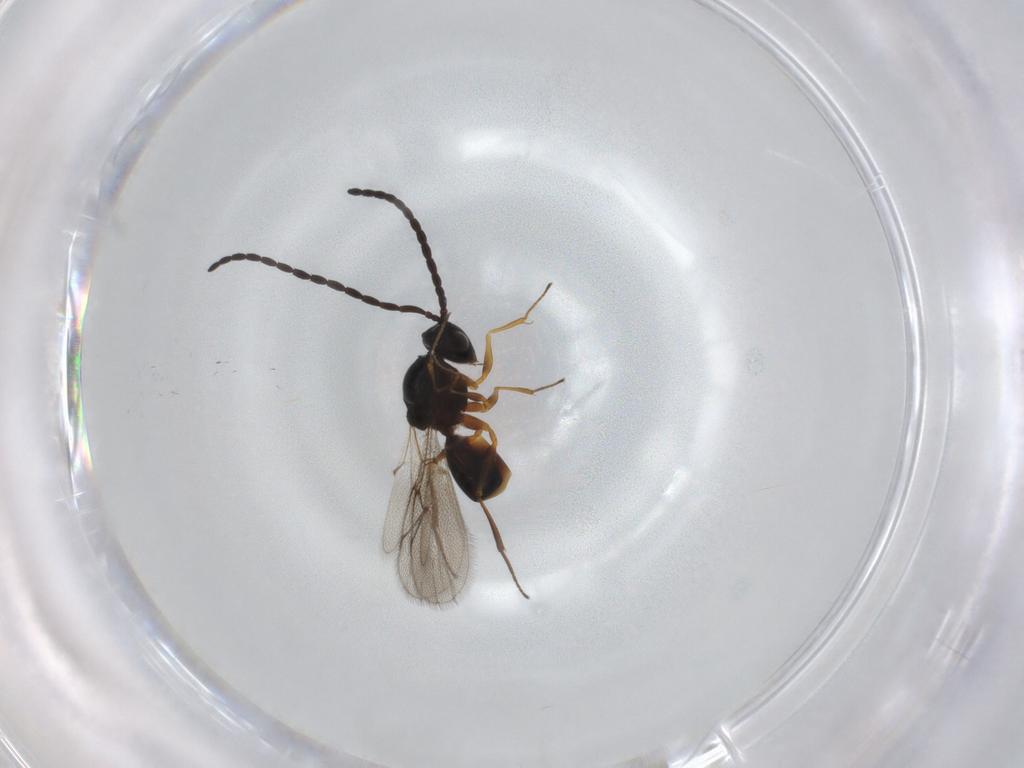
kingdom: Animalia
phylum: Arthropoda
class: Insecta
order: Hymenoptera
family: Figitidae
